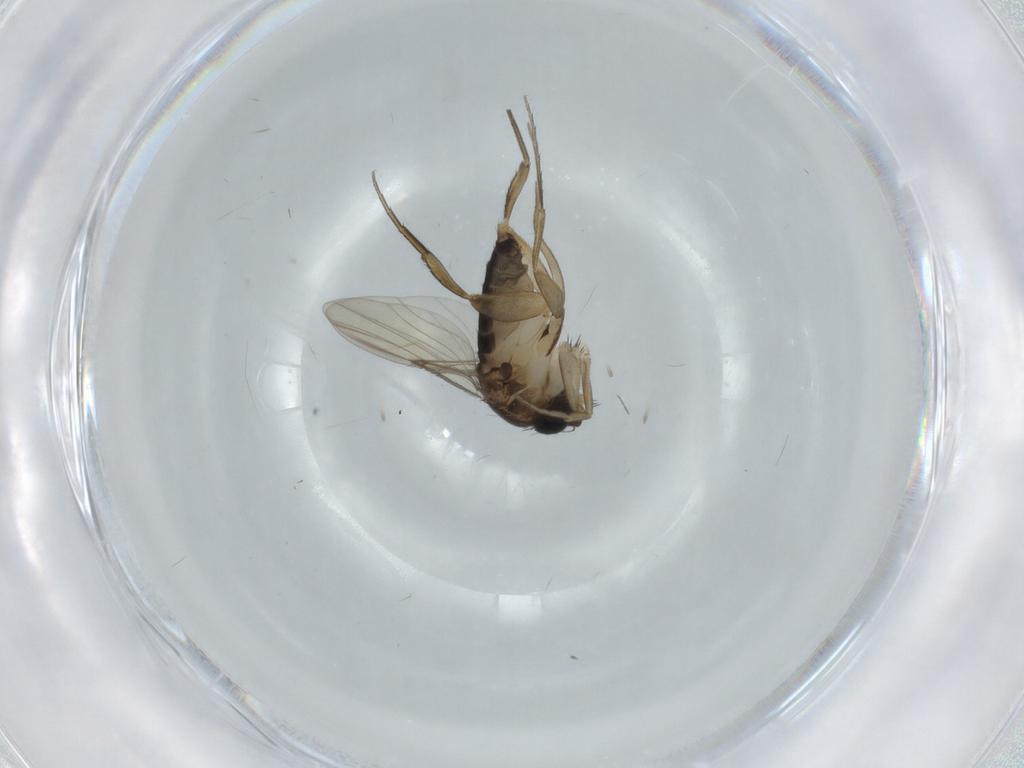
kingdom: Animalia
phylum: Arthropoda
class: Insecta
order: Diptera
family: Phoridae
